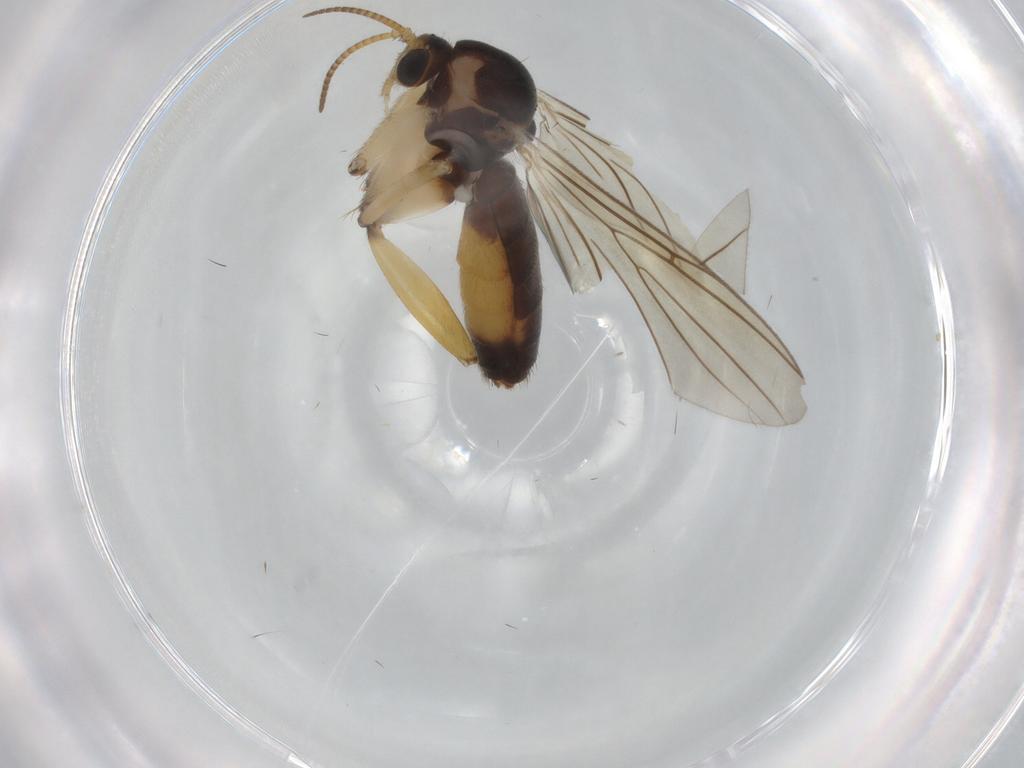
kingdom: Animalia
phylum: Arthropoda
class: Insecta
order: Diptera
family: Mycetophilidae
